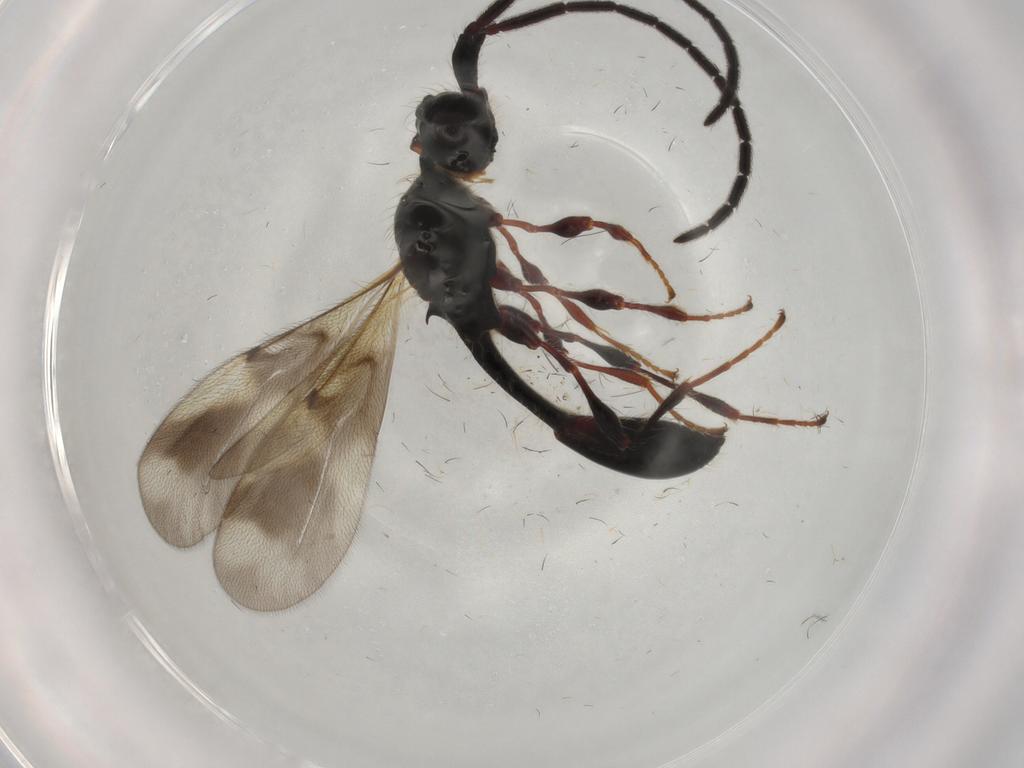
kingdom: Animalia
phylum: Arthropoda
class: Insecta
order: Hymenoptera
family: Diapriidae
